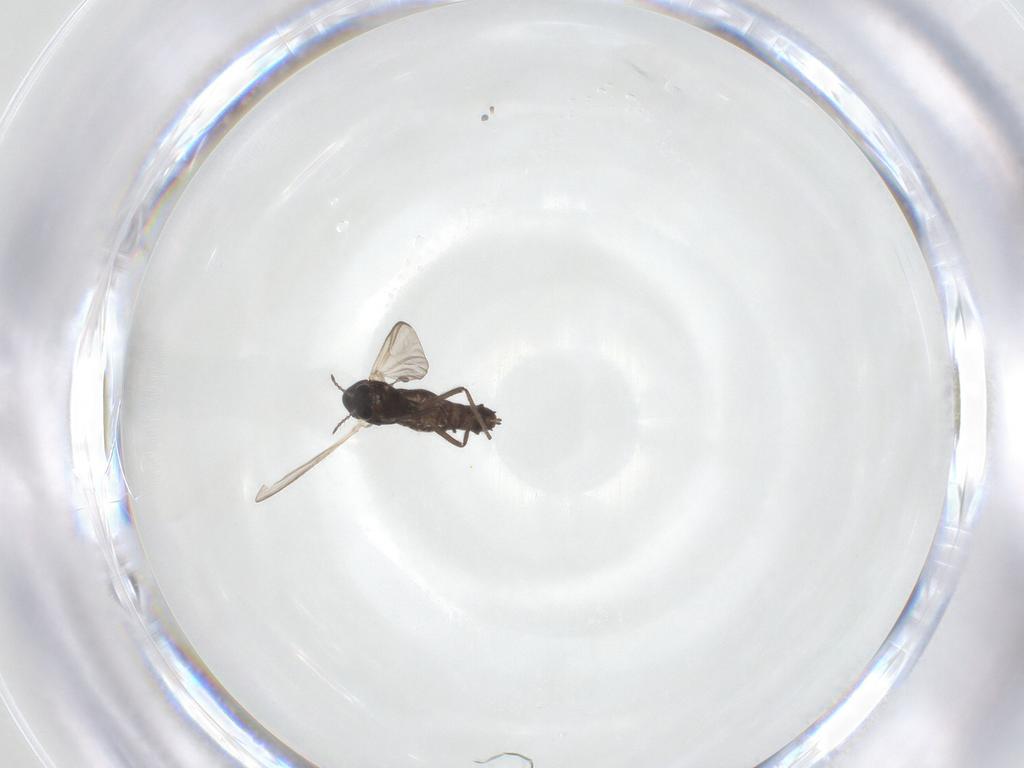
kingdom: Animalia
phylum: Arthropoda
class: Insecta
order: Diptera
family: Chironomidae
